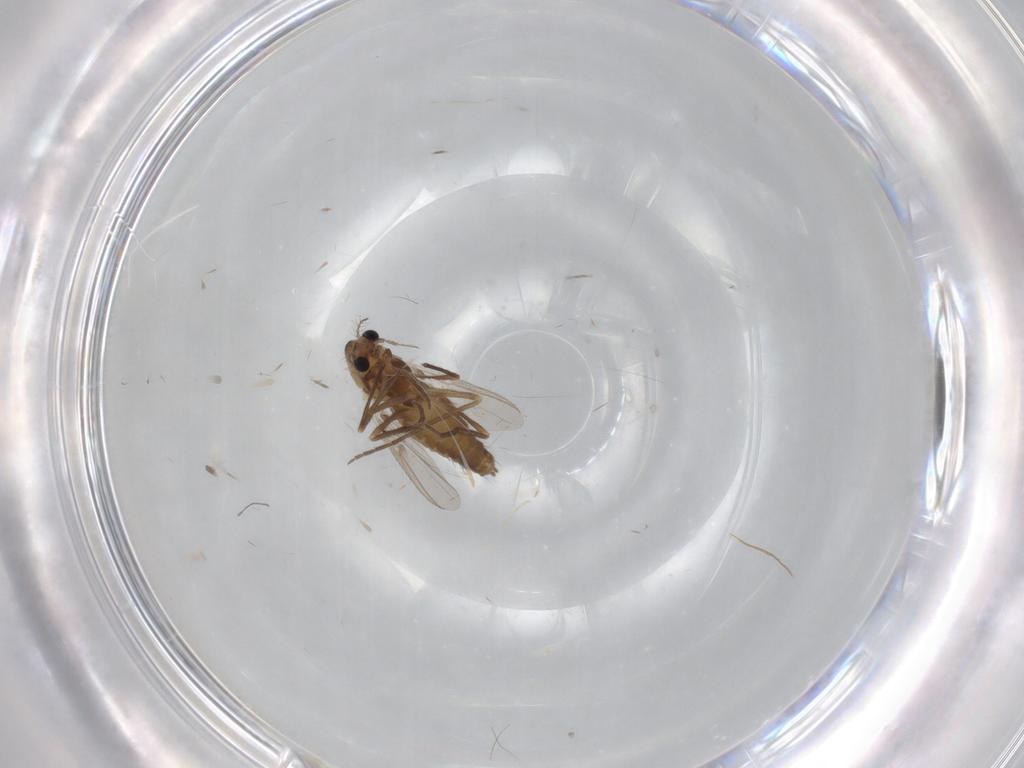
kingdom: Animalia
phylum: Arthropoda
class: Insecta
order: Diptera
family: Chironomidae
